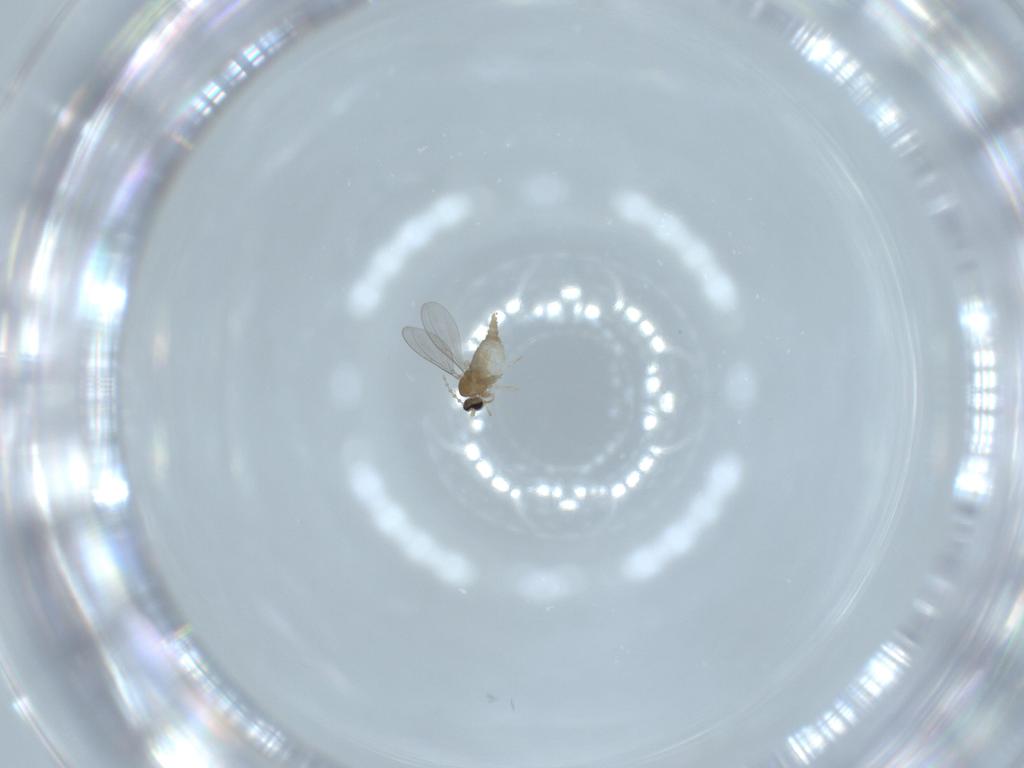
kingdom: Animalia
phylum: Arthropoda
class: Insecta
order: Diptera
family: Cecidomyiidae
